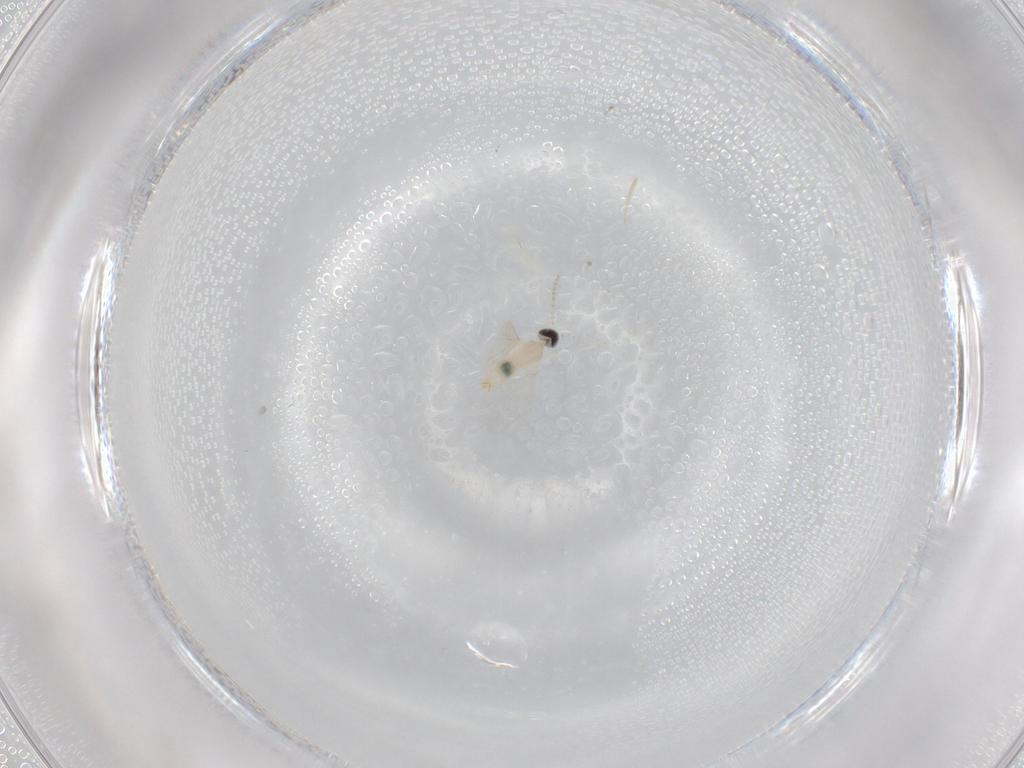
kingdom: Animalia
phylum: Arthropoda
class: Insecta
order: Diptera
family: Cecidomyiidae
